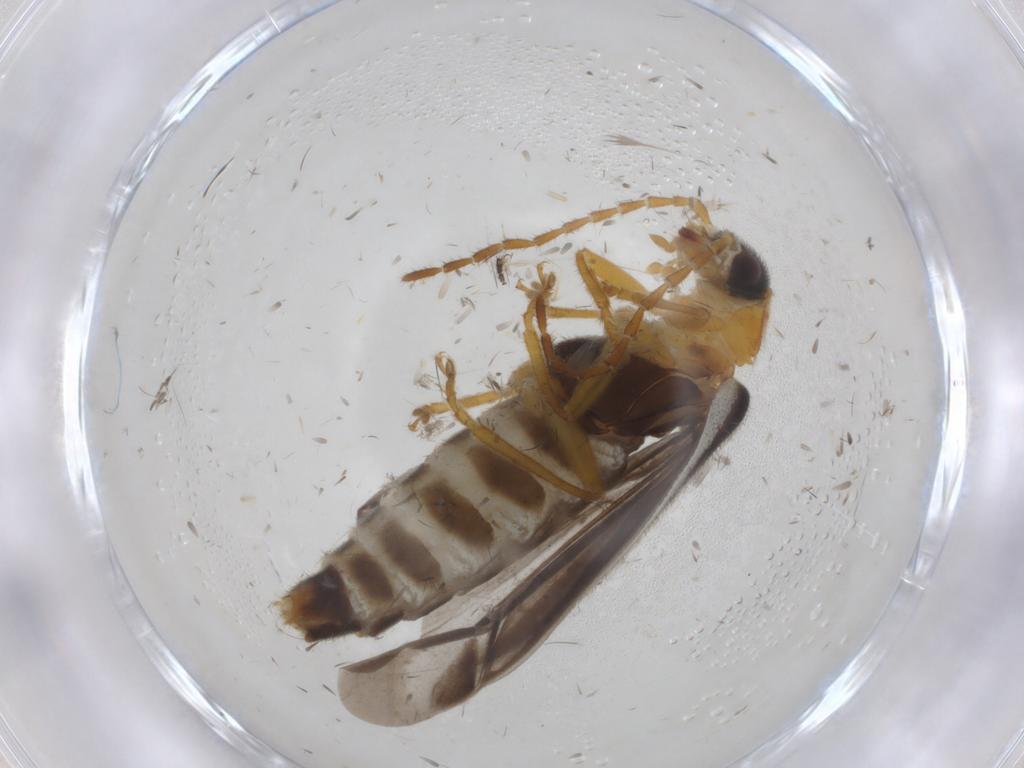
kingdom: Animalia
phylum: Arthropoda
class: Insecta
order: Coleoptera
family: Cantharidae
